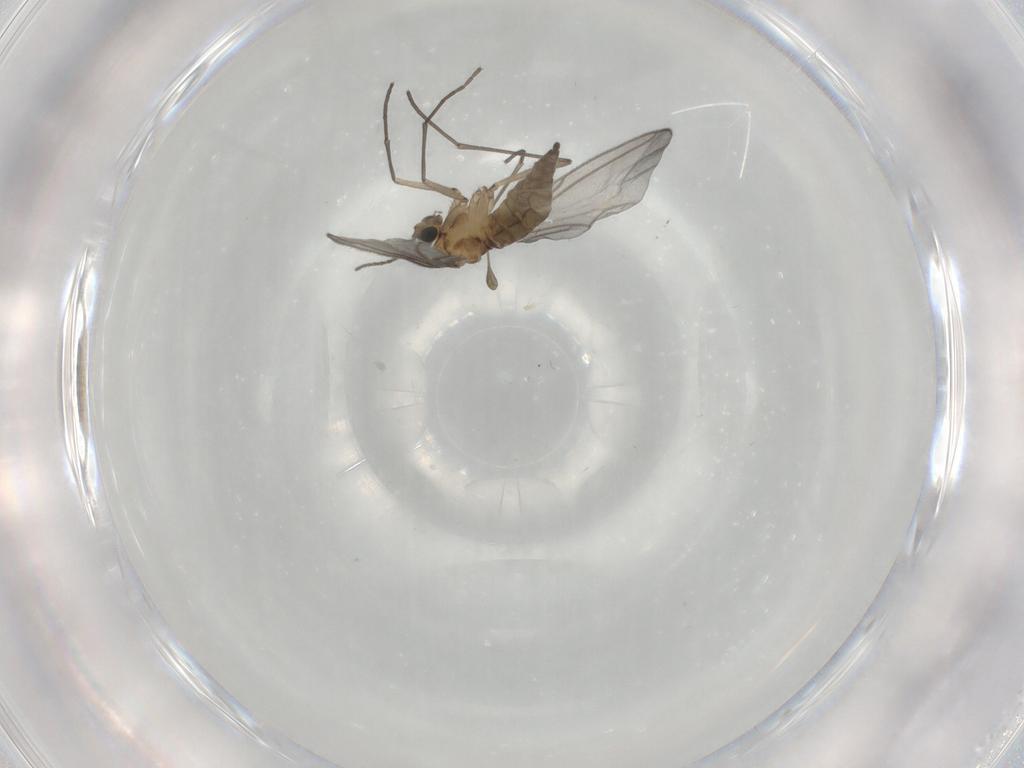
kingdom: Animalia
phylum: Arthropoda
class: Insecta
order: Diptera
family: Sciaridae
